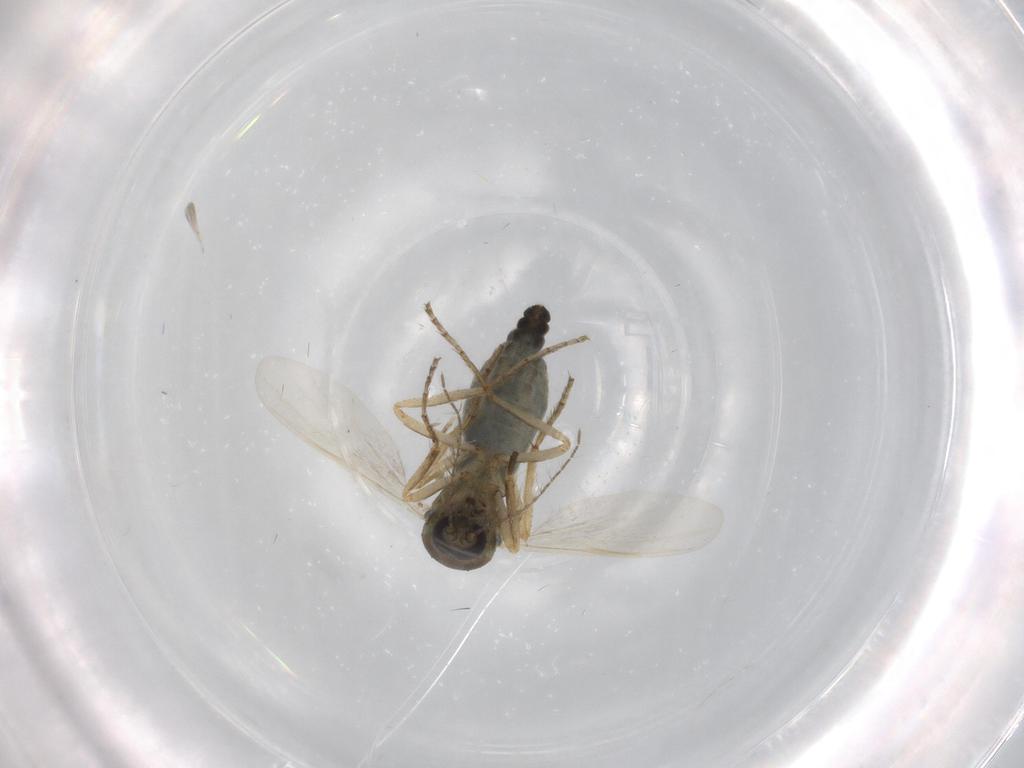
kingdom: Animalia
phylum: Arthropoda
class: Insecta
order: Diptera
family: Ceratopogonidae
